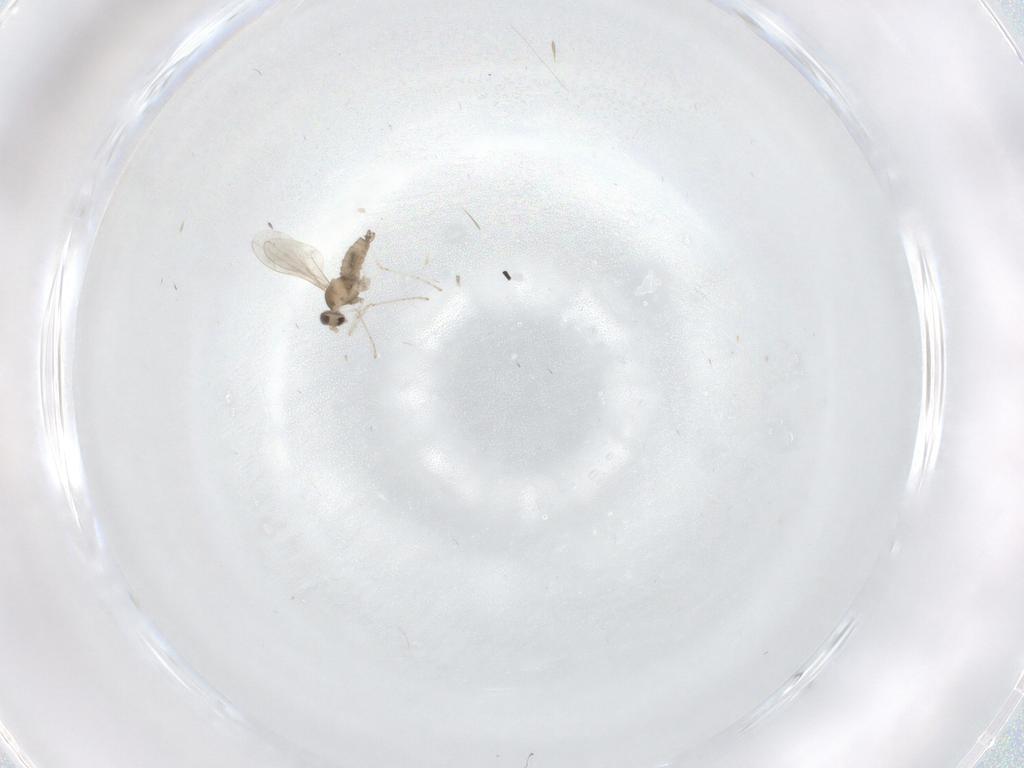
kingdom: Animalia
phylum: Arthropoda
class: Insecta
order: Diptera
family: Cecidomyiidae
